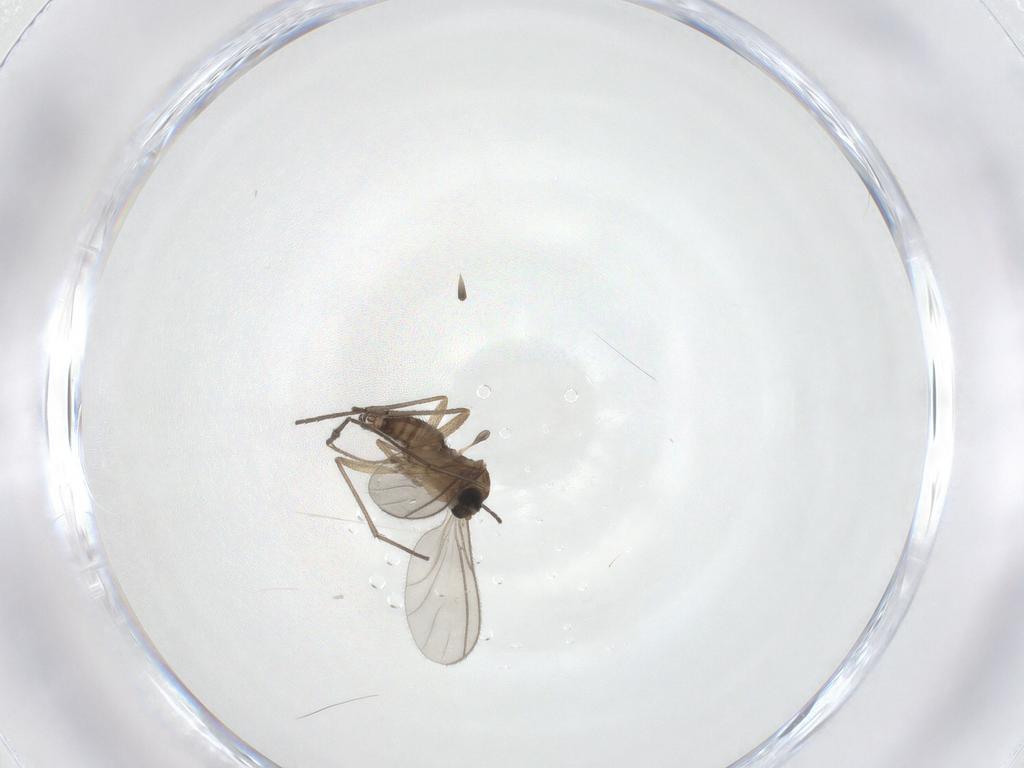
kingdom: Animalia
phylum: Arthropoda
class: Insecta
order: Diptera
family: Sciaridae
